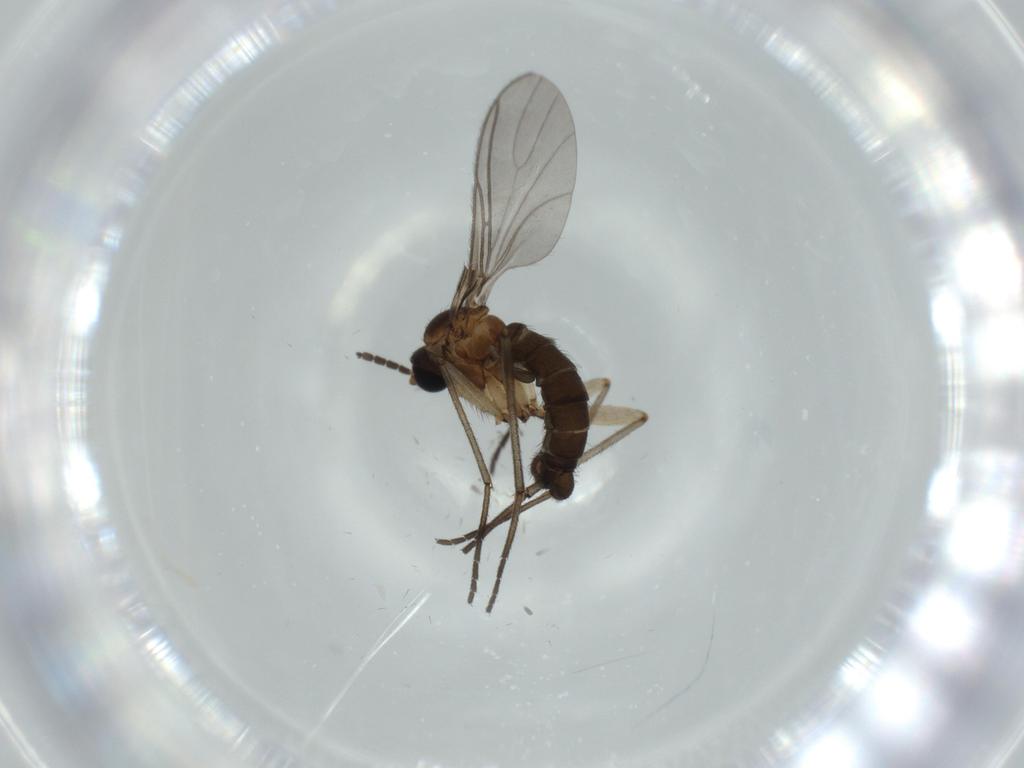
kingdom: Animalia
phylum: Arthropoda
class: Insecta
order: Diptera
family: Sciaridae
